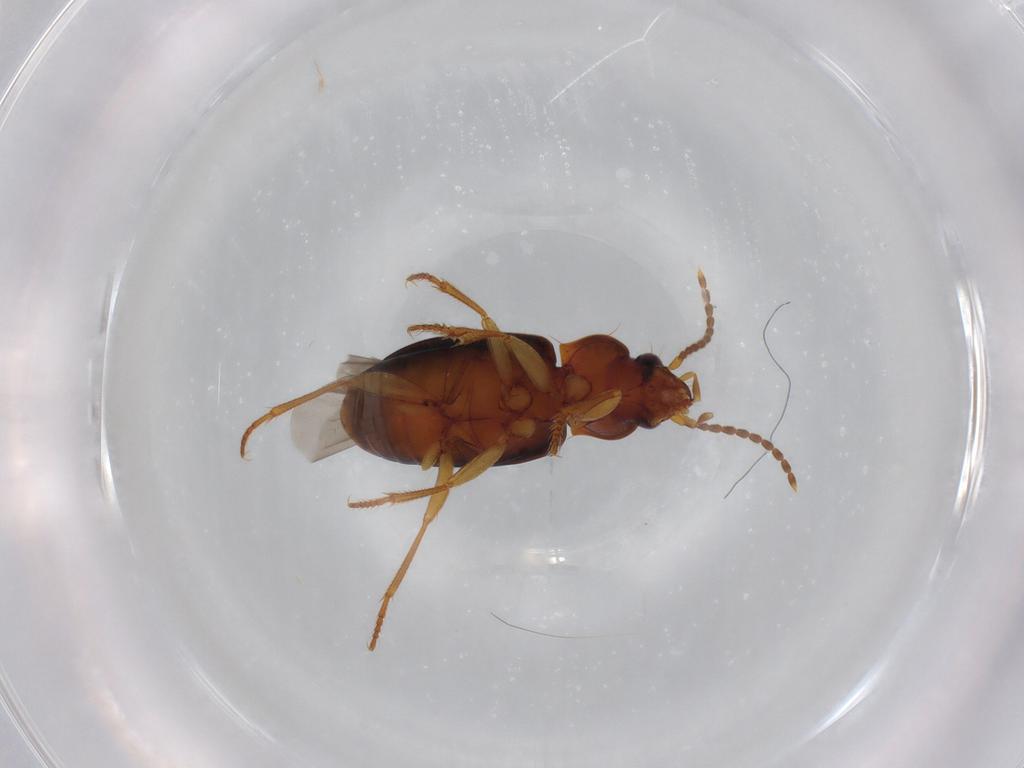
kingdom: Animalia
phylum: Arthropoda
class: Insecta
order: Coleoptera
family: Carabidae
